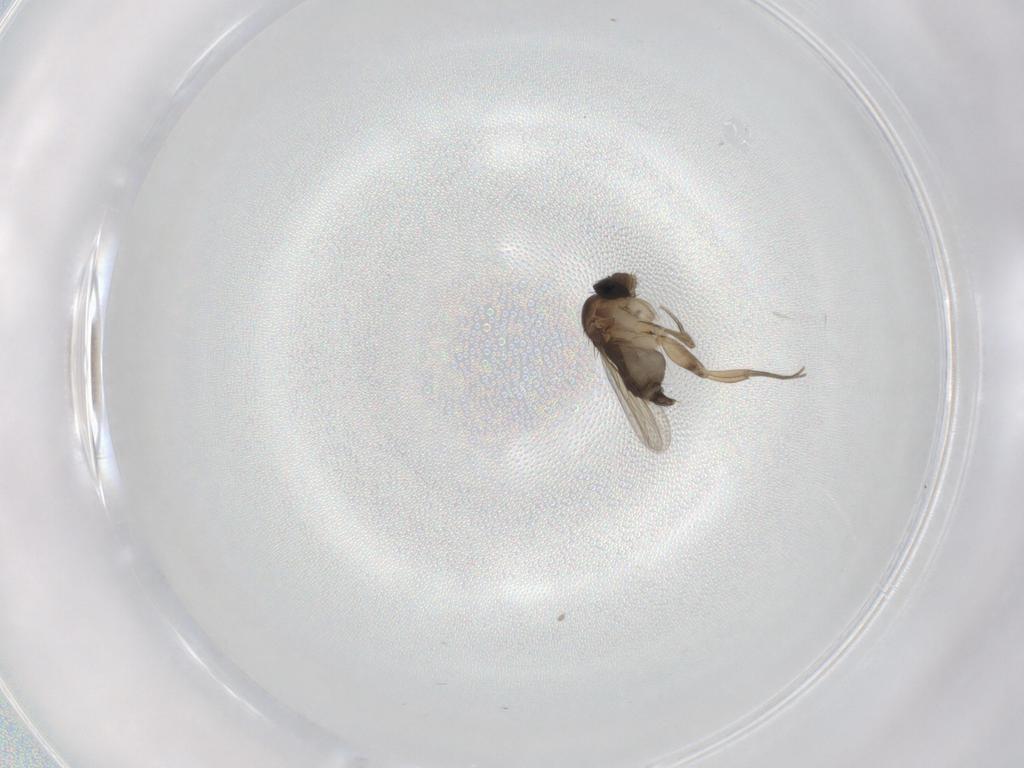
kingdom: Animalia
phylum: Arthropoda
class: Insecta
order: Diptera
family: Phoridae
